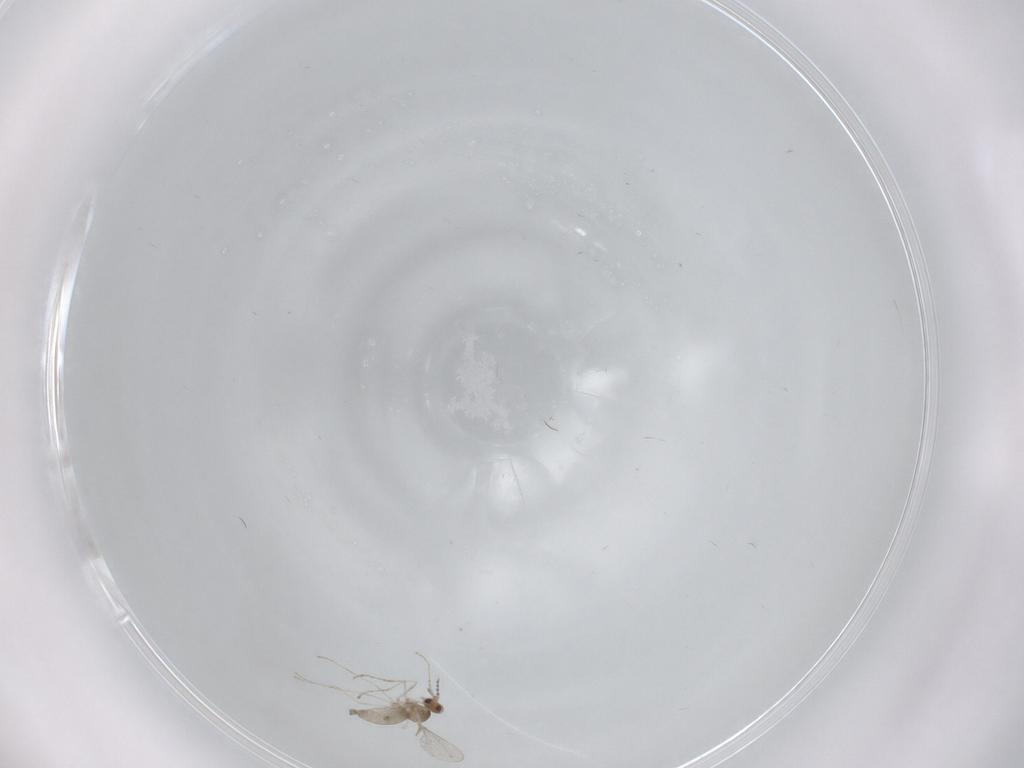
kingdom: Animalia
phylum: Arthropoda
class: Insecta
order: Diptera
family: Cecidomyiidae
